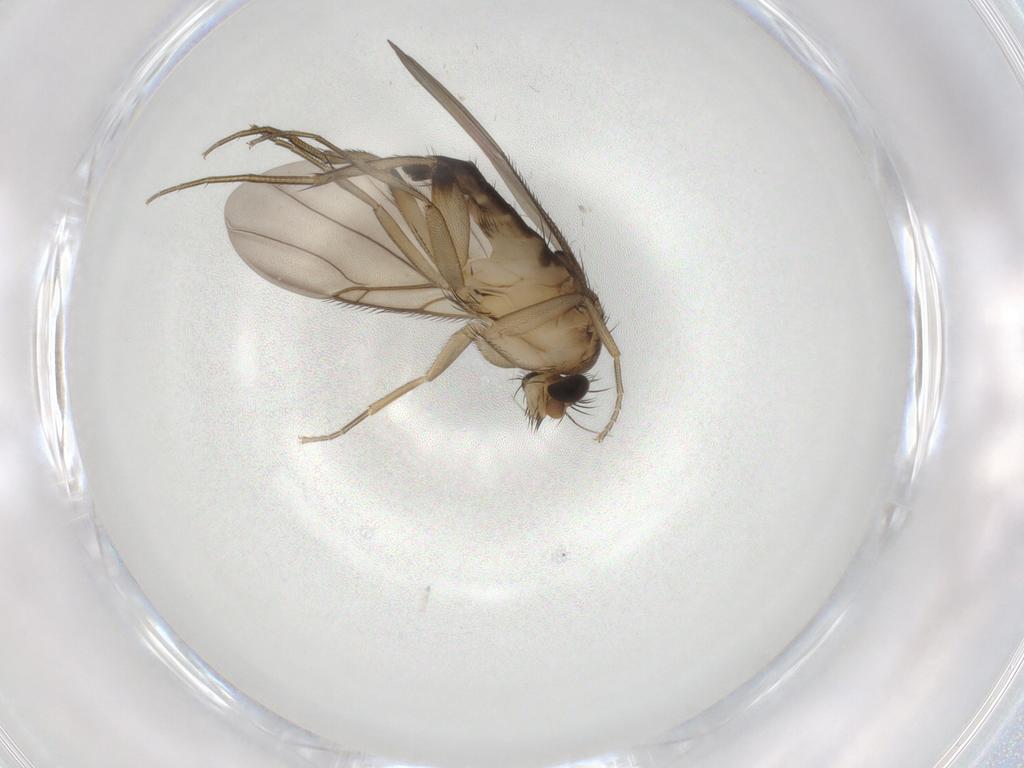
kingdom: Animalia
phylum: Arthropoda
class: Insecta
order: Diptera
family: Phoridae
